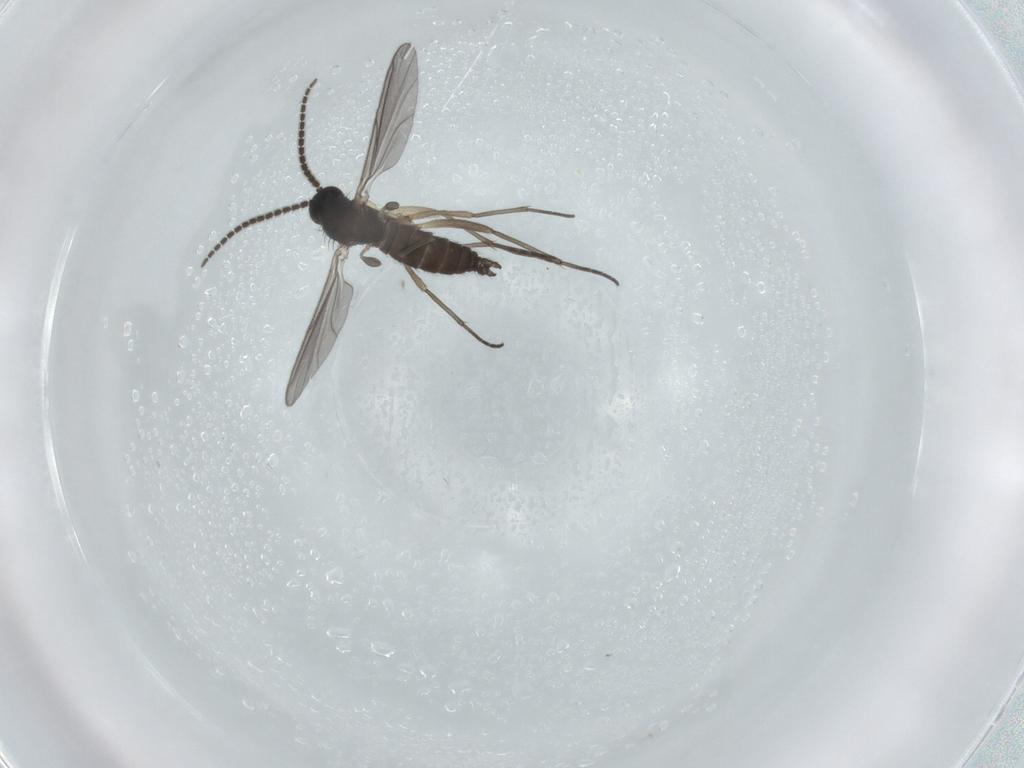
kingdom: Animalia
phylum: Arthropoda
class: Insecta
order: Diptera
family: Sciaridae
